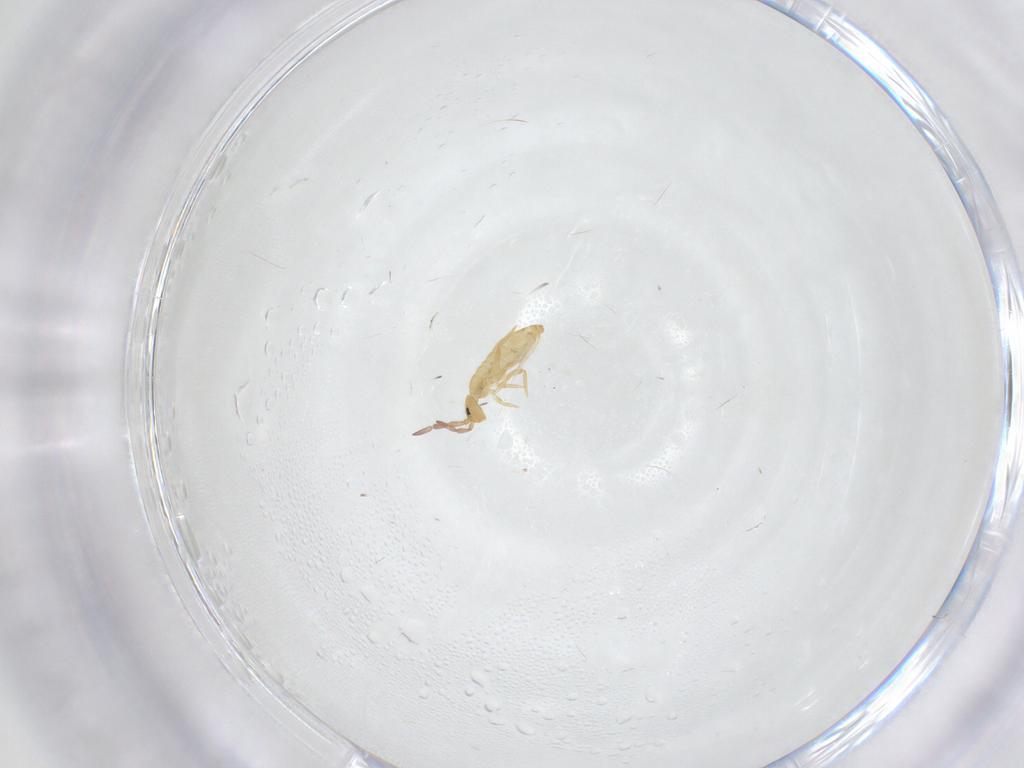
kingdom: Animalia
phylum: Arthropoda
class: Collembola
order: Entomobryomorpha
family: Entomobryidae
